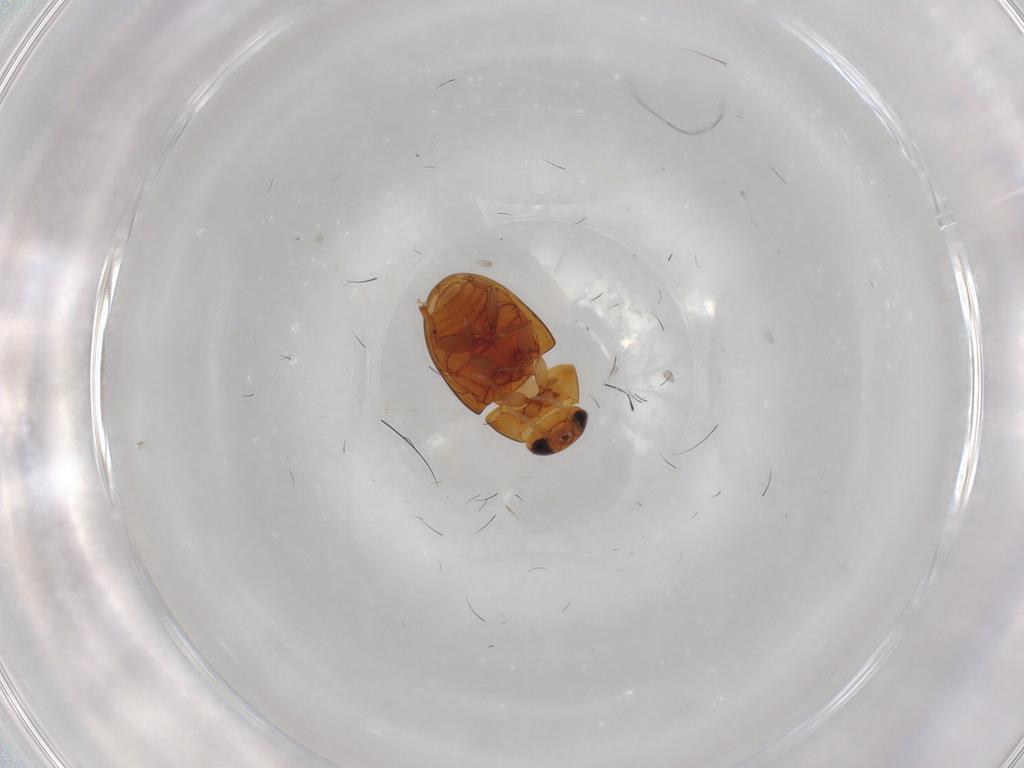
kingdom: Animalia
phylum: Arthropoda
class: Insecta
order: Coleoptera
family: Phalacridae
